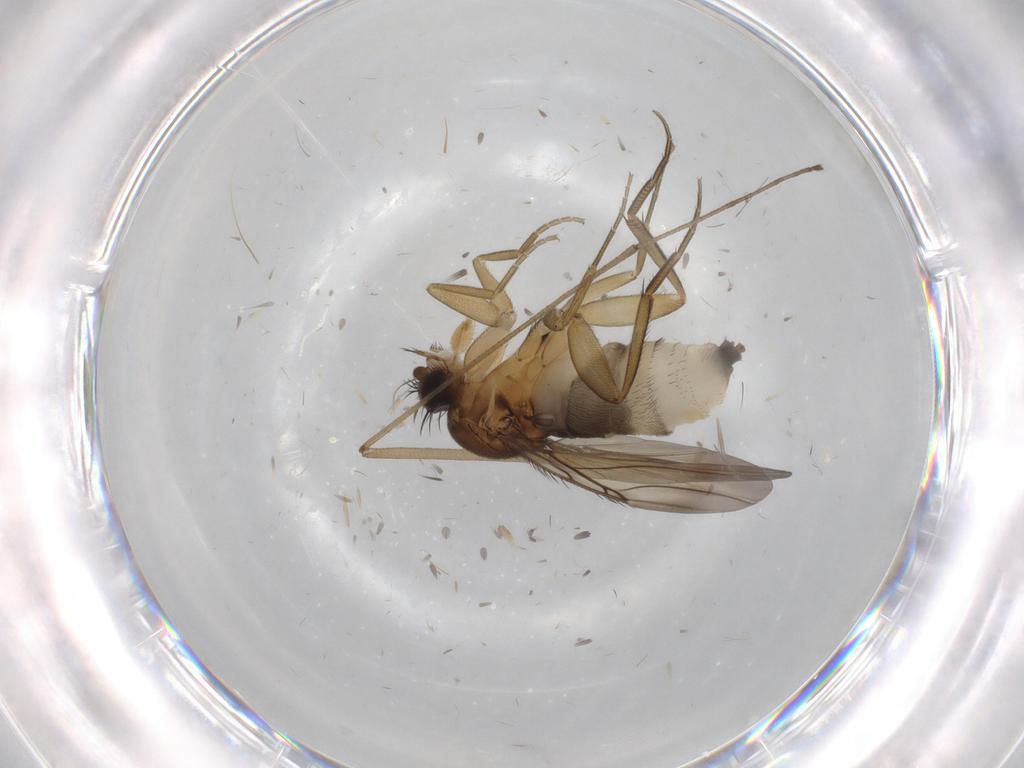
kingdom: Animalia
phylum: Arthropoda
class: Insecta
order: Diptera
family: Phoridae
